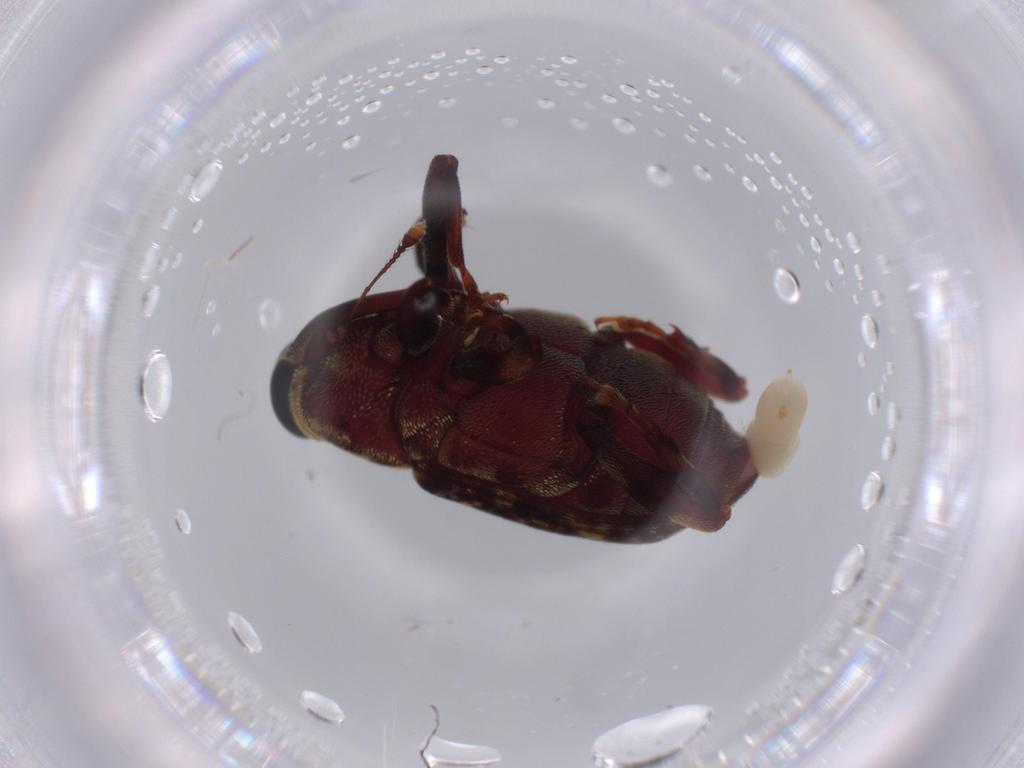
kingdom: Animalia
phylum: Arthropoda
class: Insecta
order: Coleoptera
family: Curculionidae
